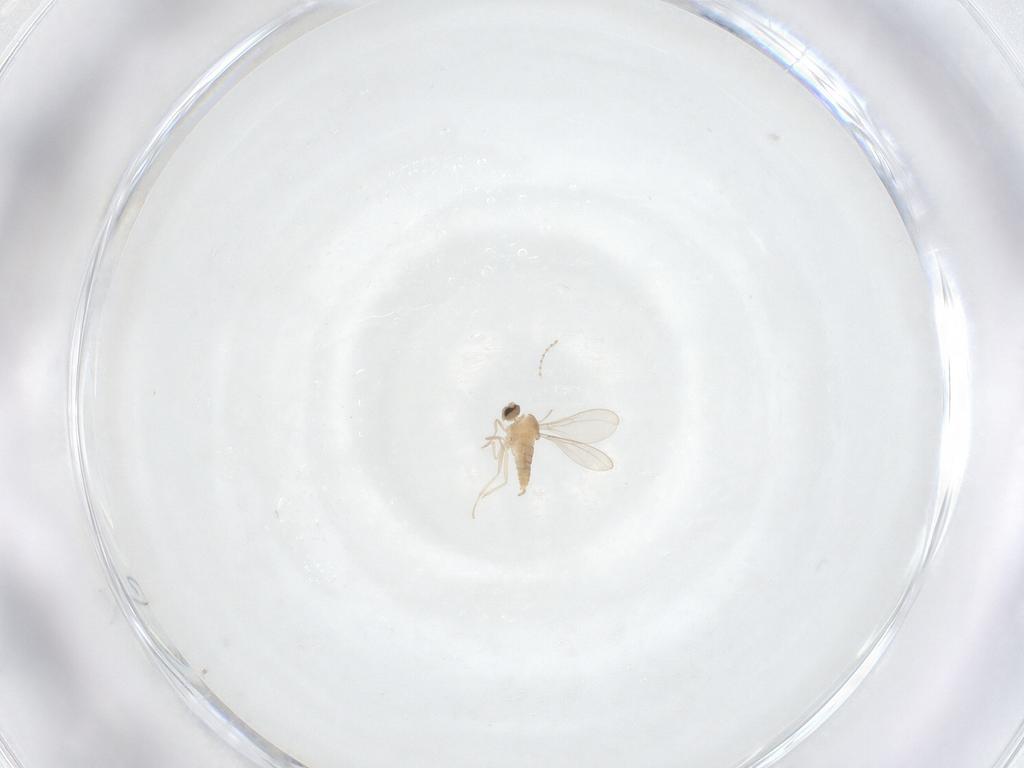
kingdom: Animalia
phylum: Arthropoda
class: Insecta
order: Diptera
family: Cecidomyiidae
